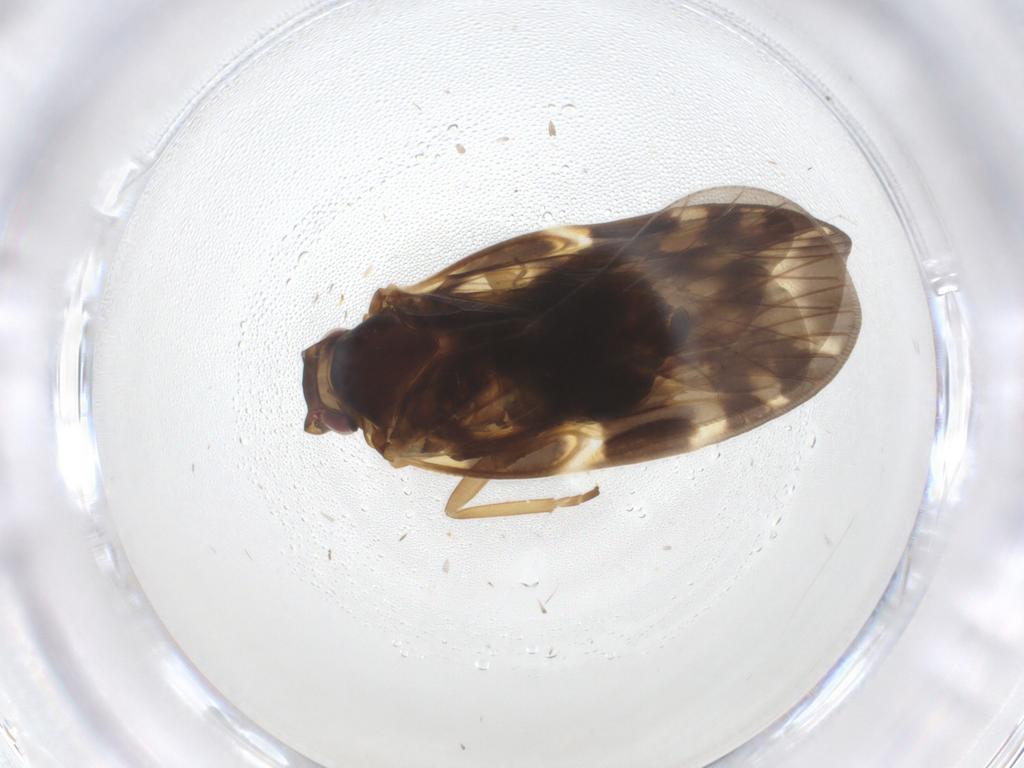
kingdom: Animalia
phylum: Arthropoda
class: Insecta
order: Hemiptera
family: Cixiidae
